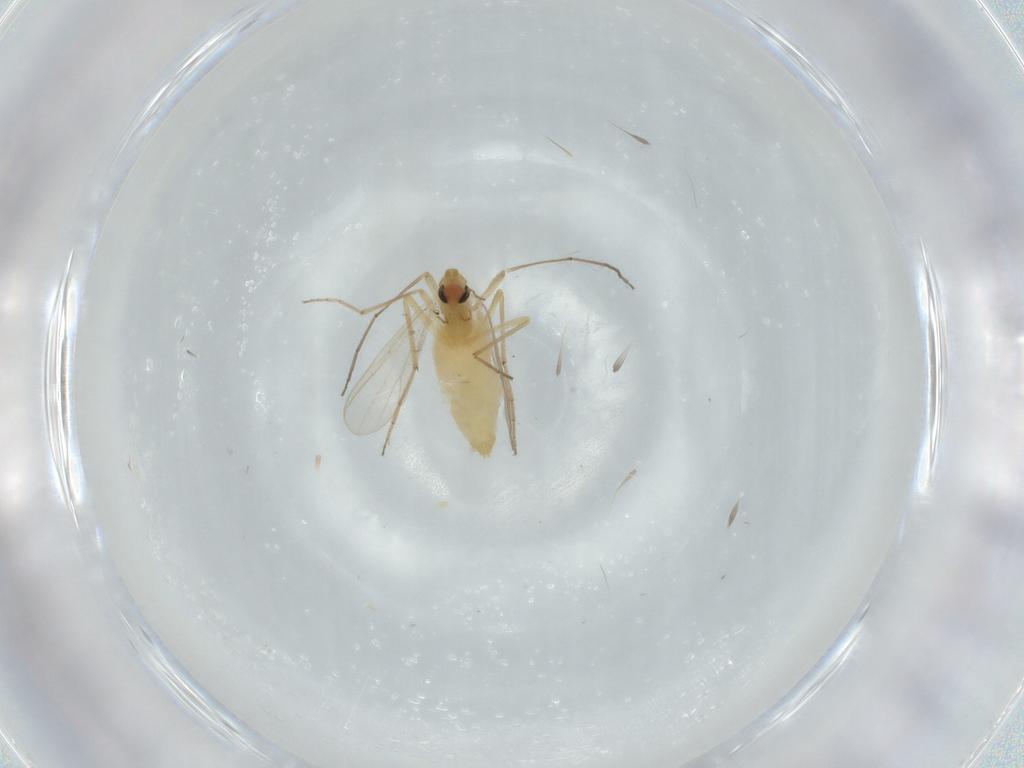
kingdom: Animalia
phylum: Arthropoda
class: Insecta
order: Diptera
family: Chironomidae
